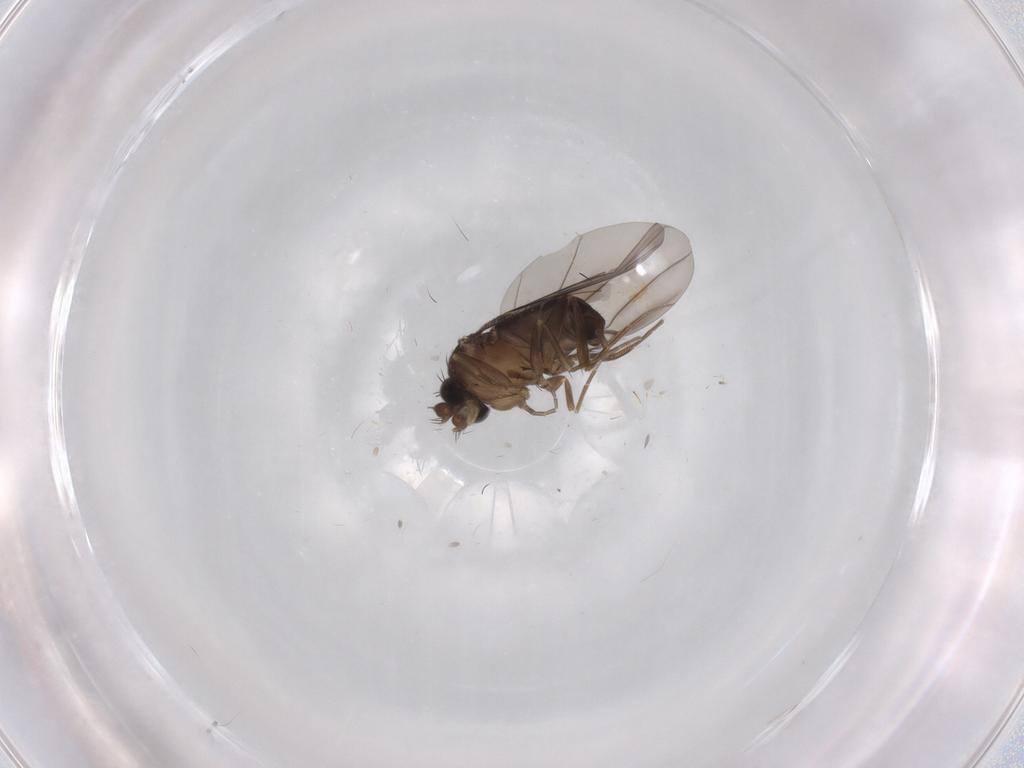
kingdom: Animalia
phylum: Arthropoda
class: Insecta
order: Diptera
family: Phoridae
